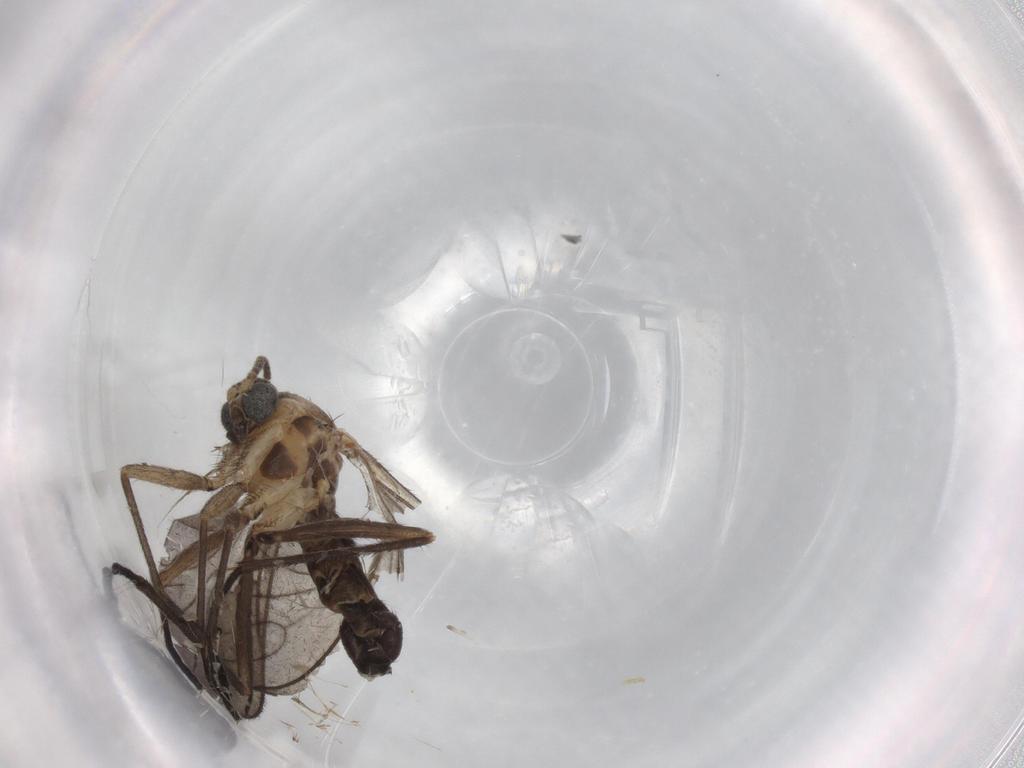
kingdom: Animalia
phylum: Arthropoda
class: Insecta
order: Diptera
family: Sciaridae
